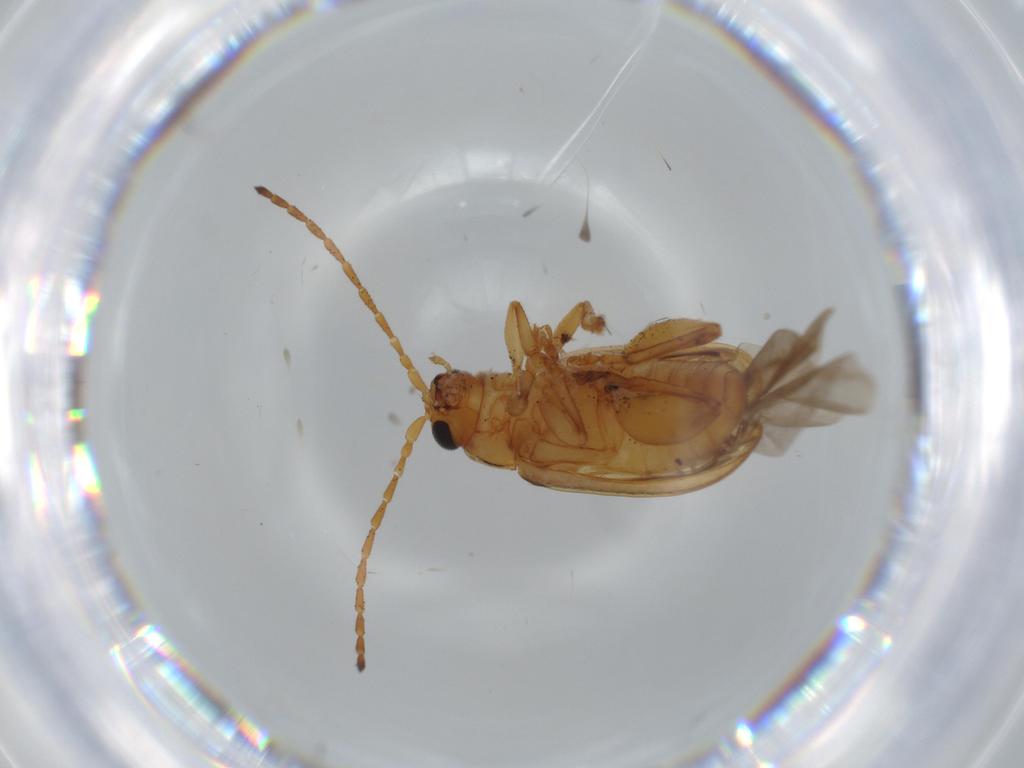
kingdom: Animalia
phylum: Arthropoda
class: Insecta
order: Coleoptera
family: Chrysomelidae
